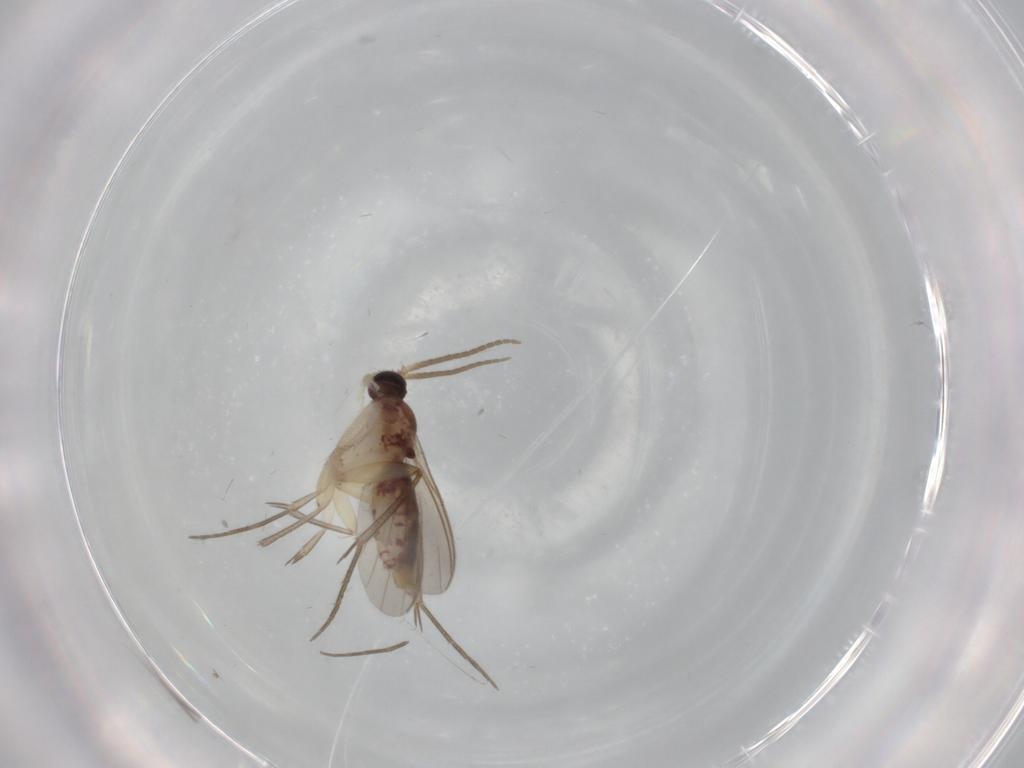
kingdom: Animalia
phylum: Arthropoda
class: Insecta
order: Diptera
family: Mycetophilidae
